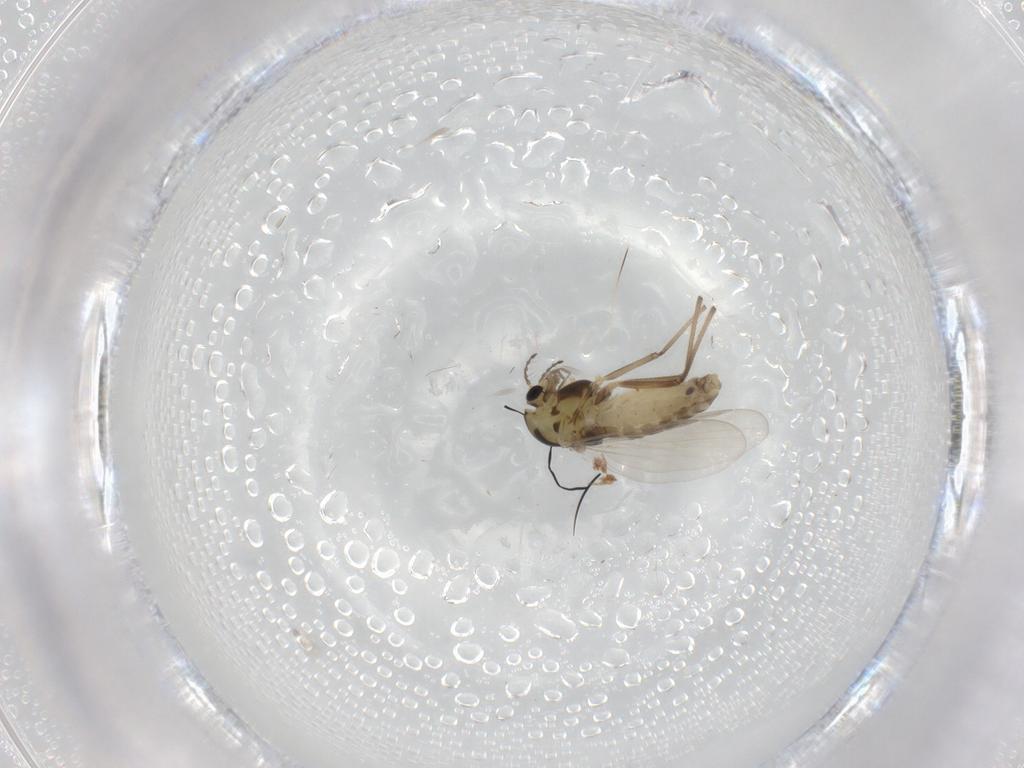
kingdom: Animalia
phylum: Arthropoda
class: Insecta
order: Diptera
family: Chironomidae
